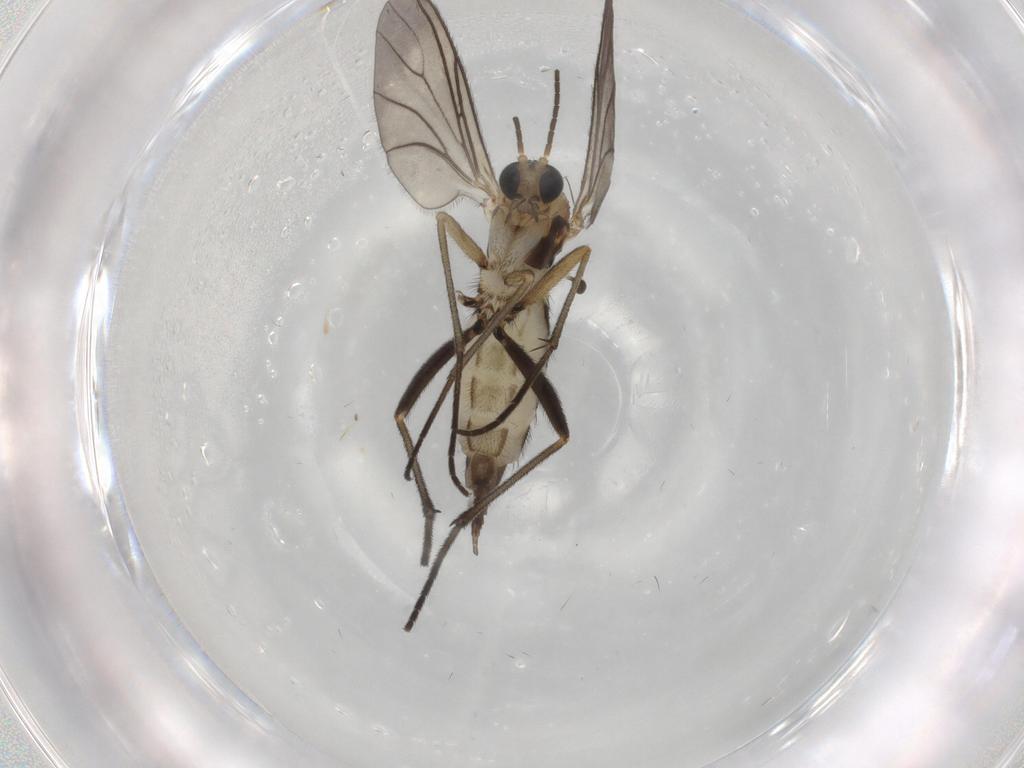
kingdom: Animalia
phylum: Arthropoda
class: Insecta
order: Diptera
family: Sciaridae
